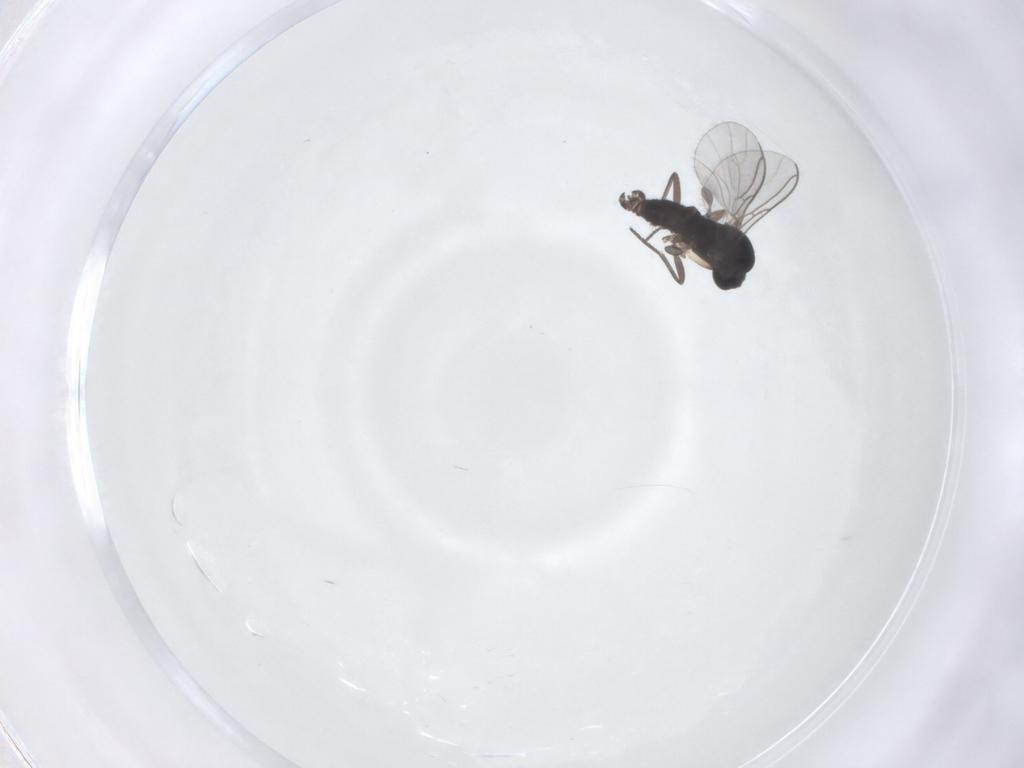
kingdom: Animalia
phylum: Arthropoda
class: Insecta
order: Diptera
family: Sciaridae
